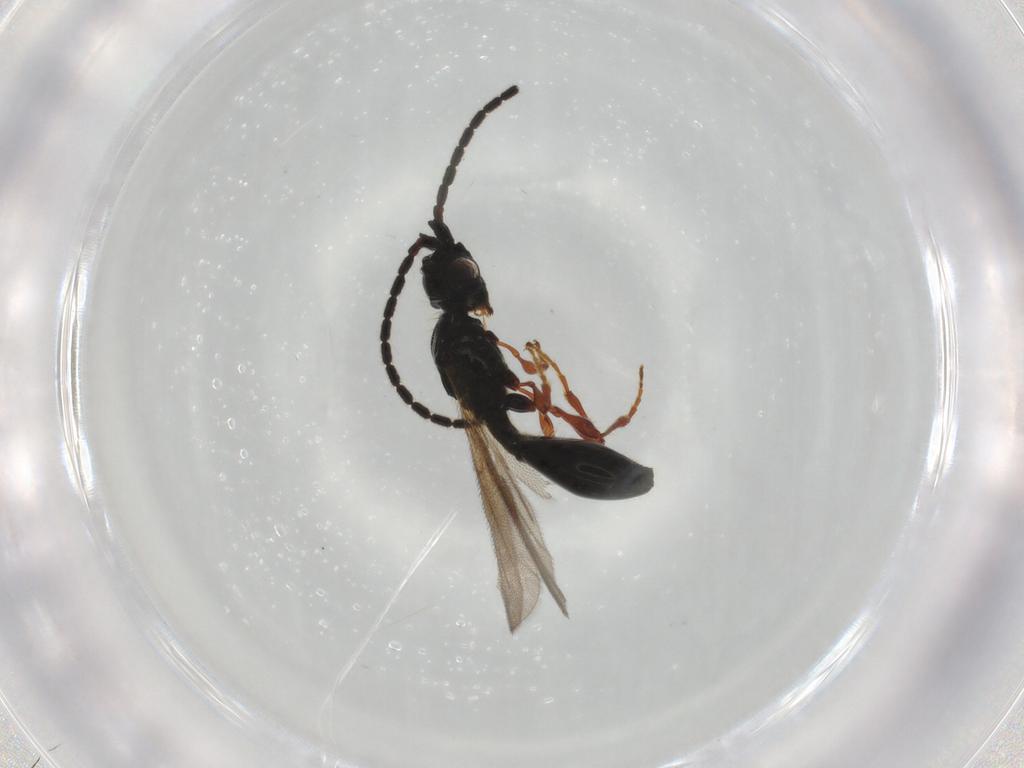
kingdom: Animalia
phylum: Arthropoda
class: Insecta
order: Hymenoptera
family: Diapriidae
